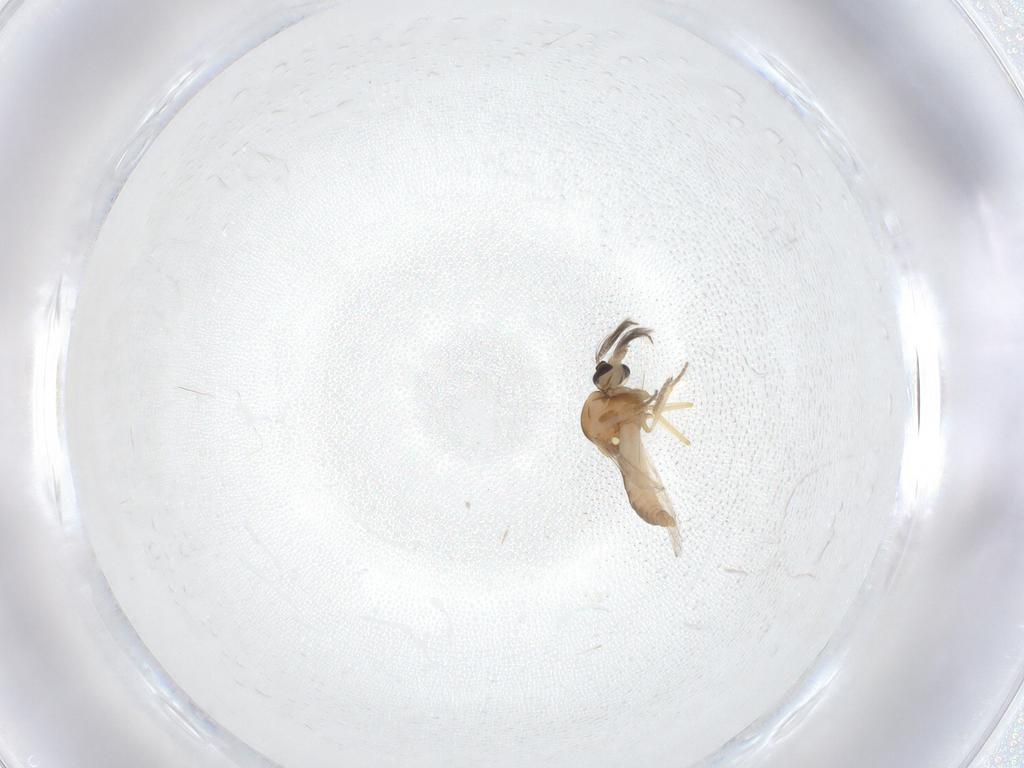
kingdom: Animalia
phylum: Arthropoda
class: Insecta
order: Diptera
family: Ceratopogonidae
